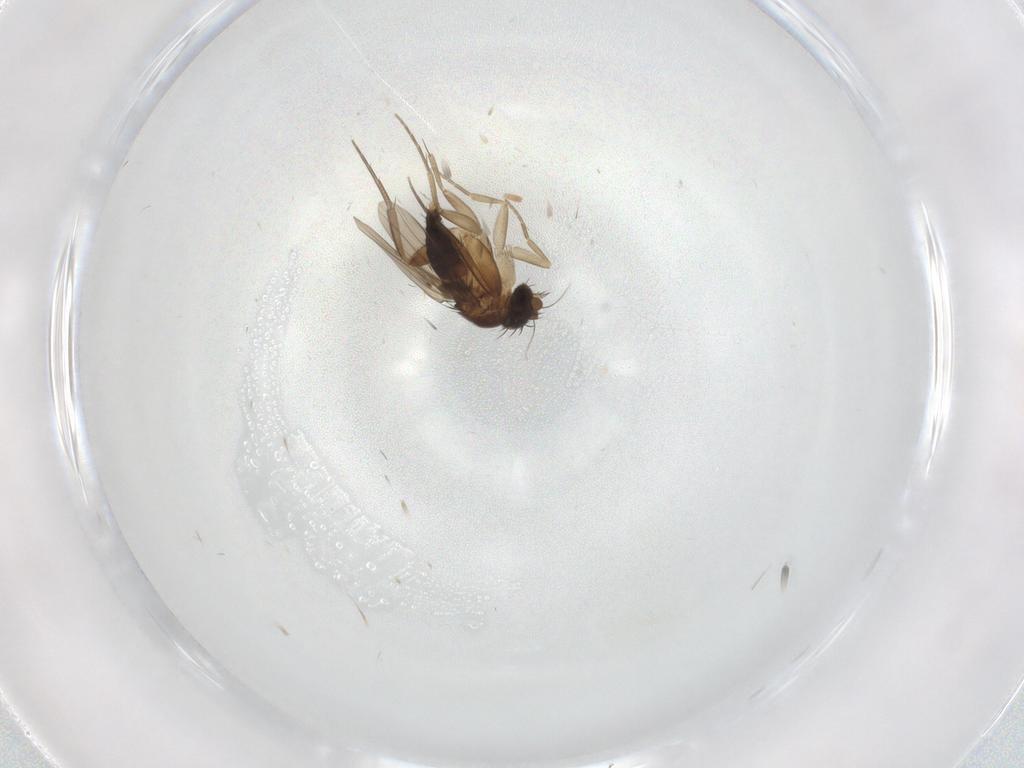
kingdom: Animalia
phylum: Arthropoda
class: Insecta
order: Diptera
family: Phoridae
